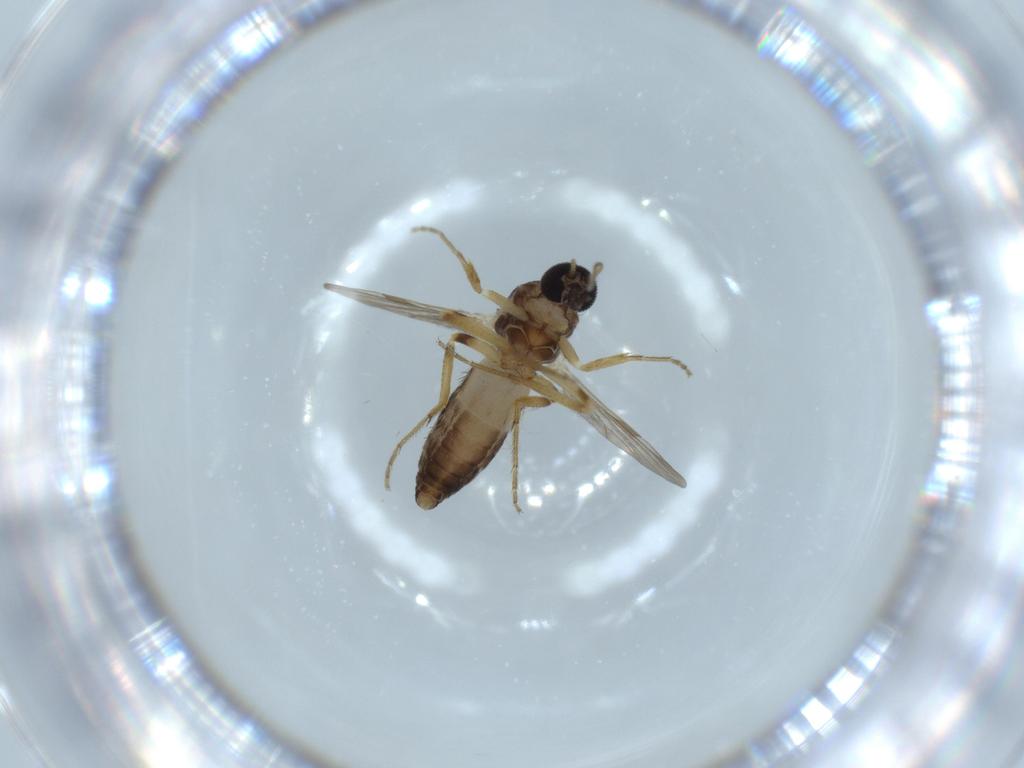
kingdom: Animalia
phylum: Arthropoda
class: Insecta
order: Diptera
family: Ceratopogonidae
